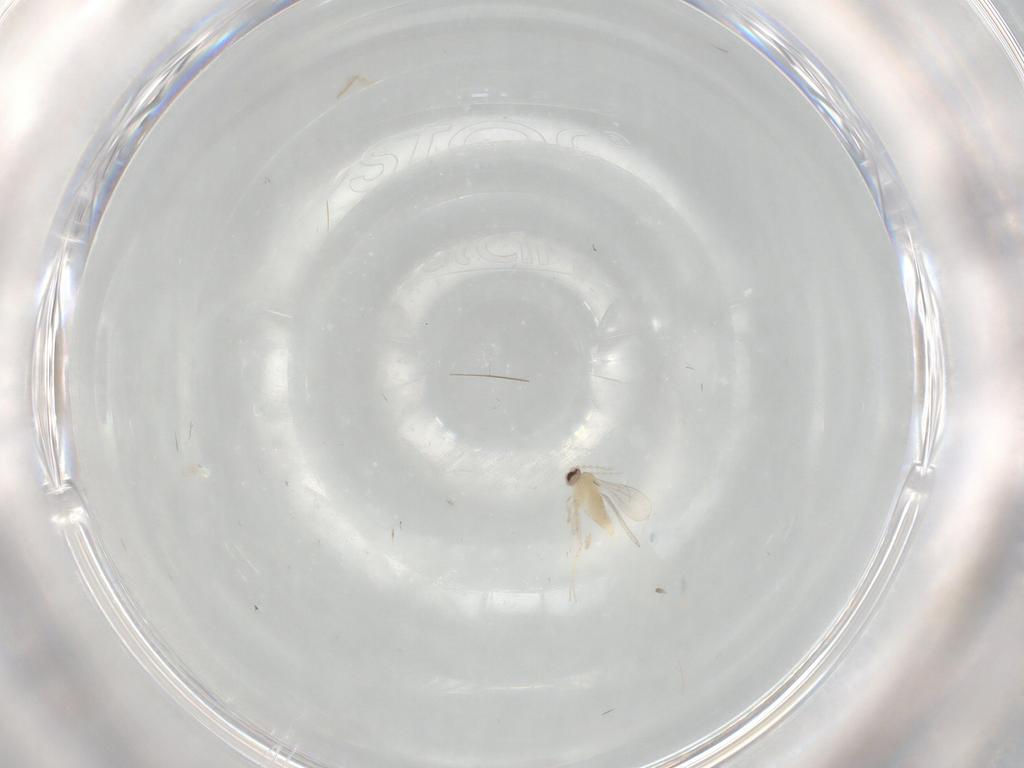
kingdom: Animalia
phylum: Arthropoda
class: Insecta
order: Diptera
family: Cecidomyiidae
